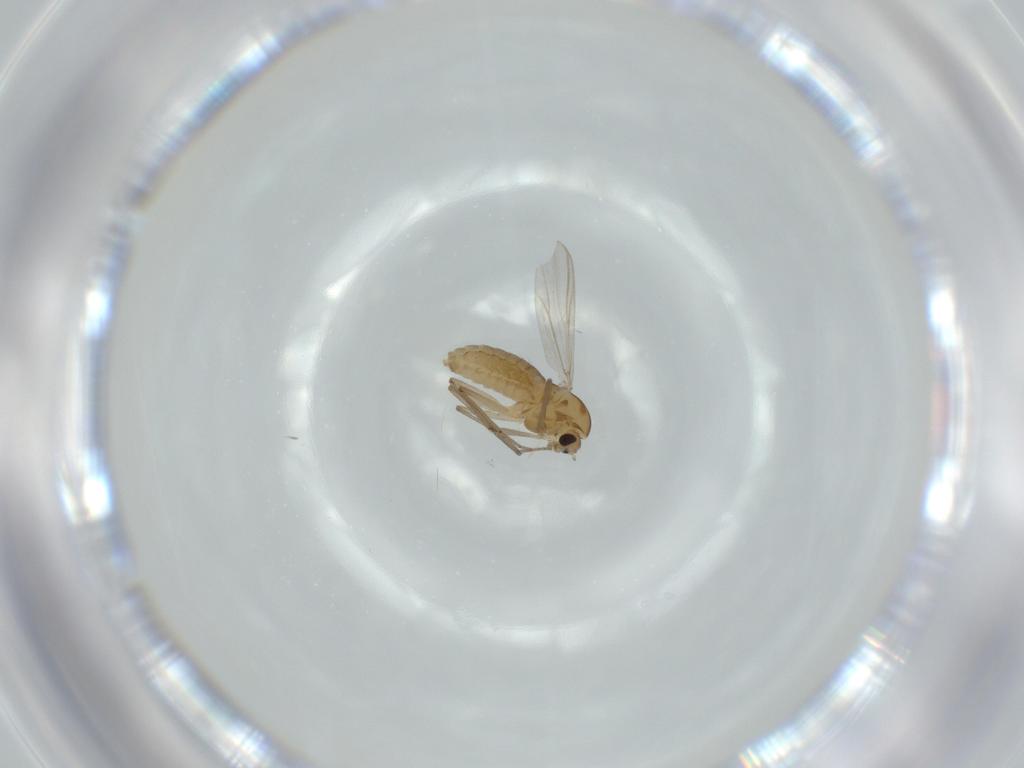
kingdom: Animalia
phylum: Arthropoda
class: Insecta
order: Diptera
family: Chironomidae
